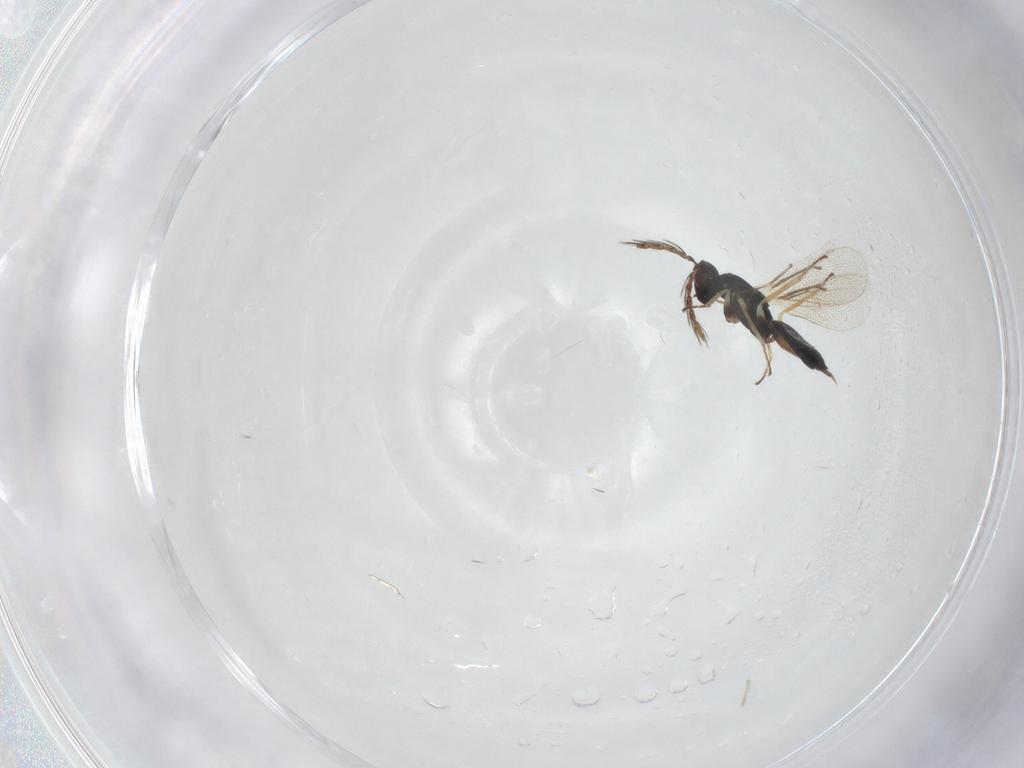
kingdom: Animalia
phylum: Arthropoda
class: Insecta
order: Hymenoptera
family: Eulophidae
